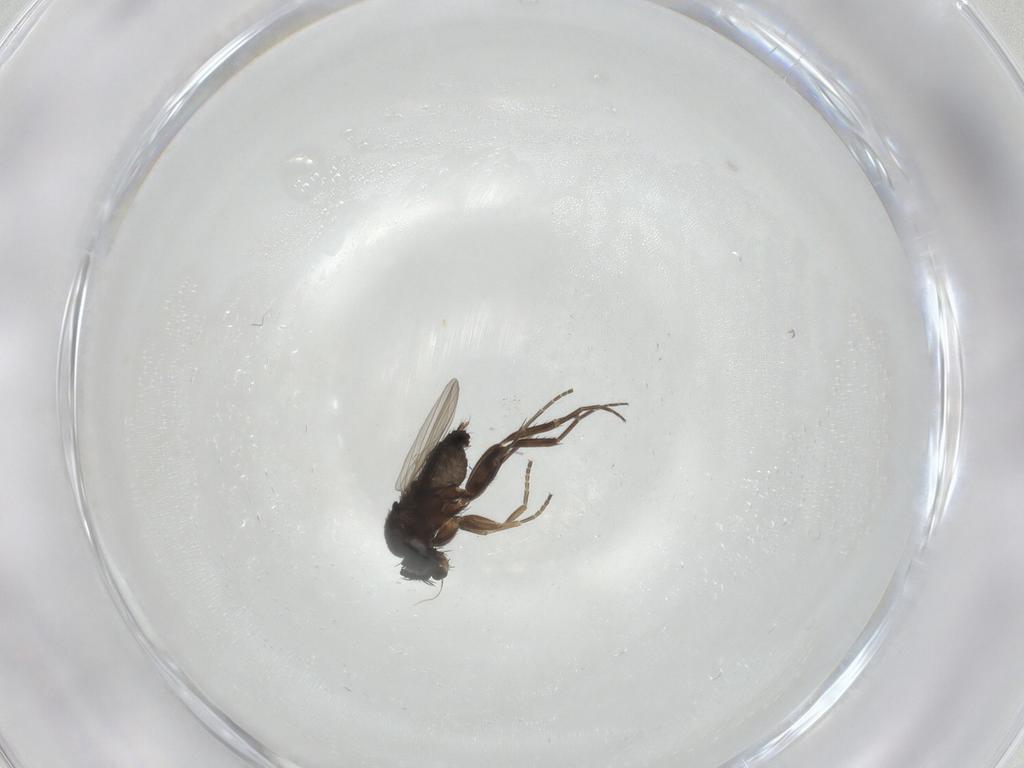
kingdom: Animalia
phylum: Arthropoda
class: Insecta
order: Diptera
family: Phoridae
